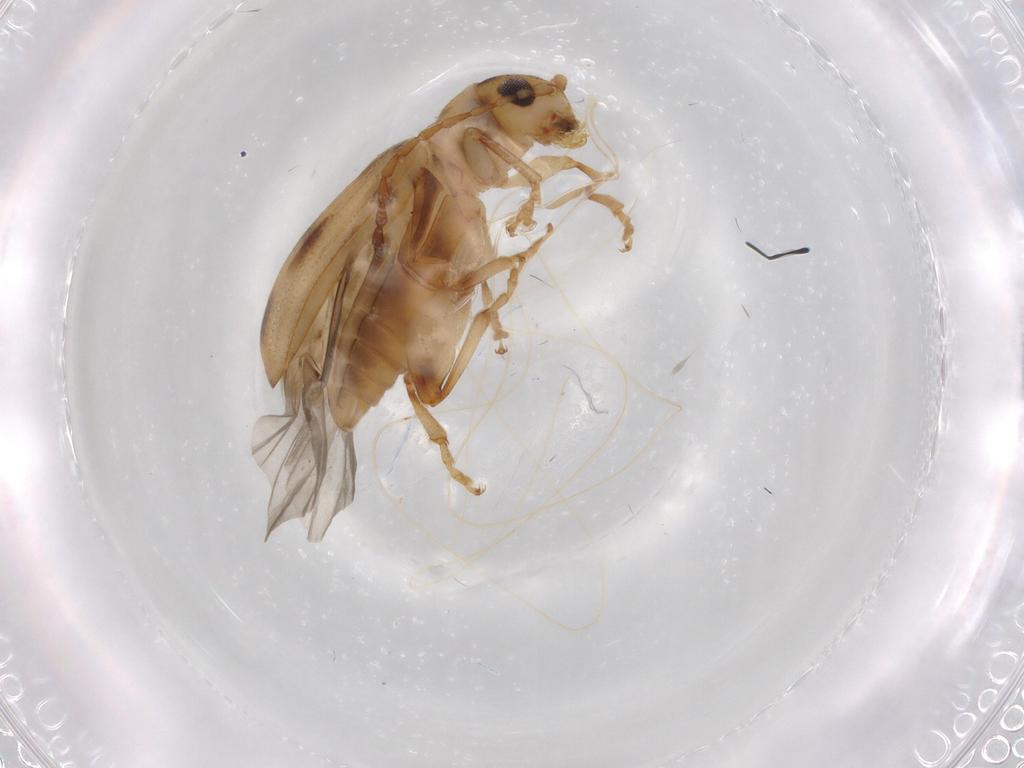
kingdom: Animalia
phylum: Arthropoda
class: Insecta
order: Coleoptera
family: Chrysomelidae
